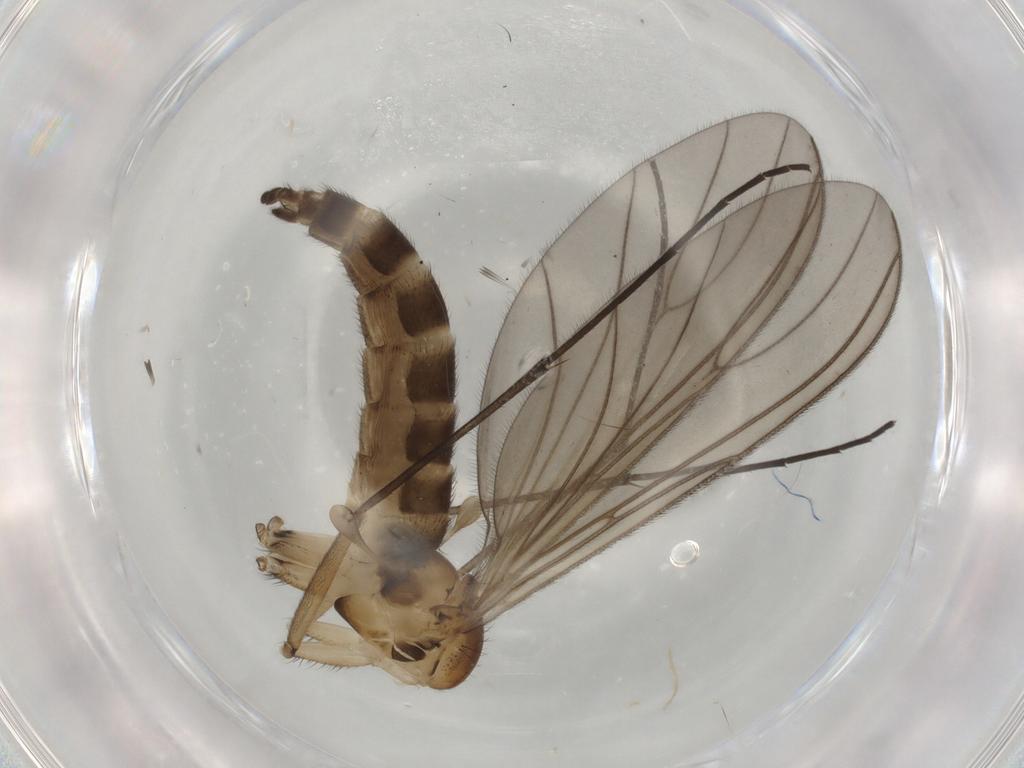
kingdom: Animalia
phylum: Arthropoda
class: Insecta
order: Diptera
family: Sciaridae
